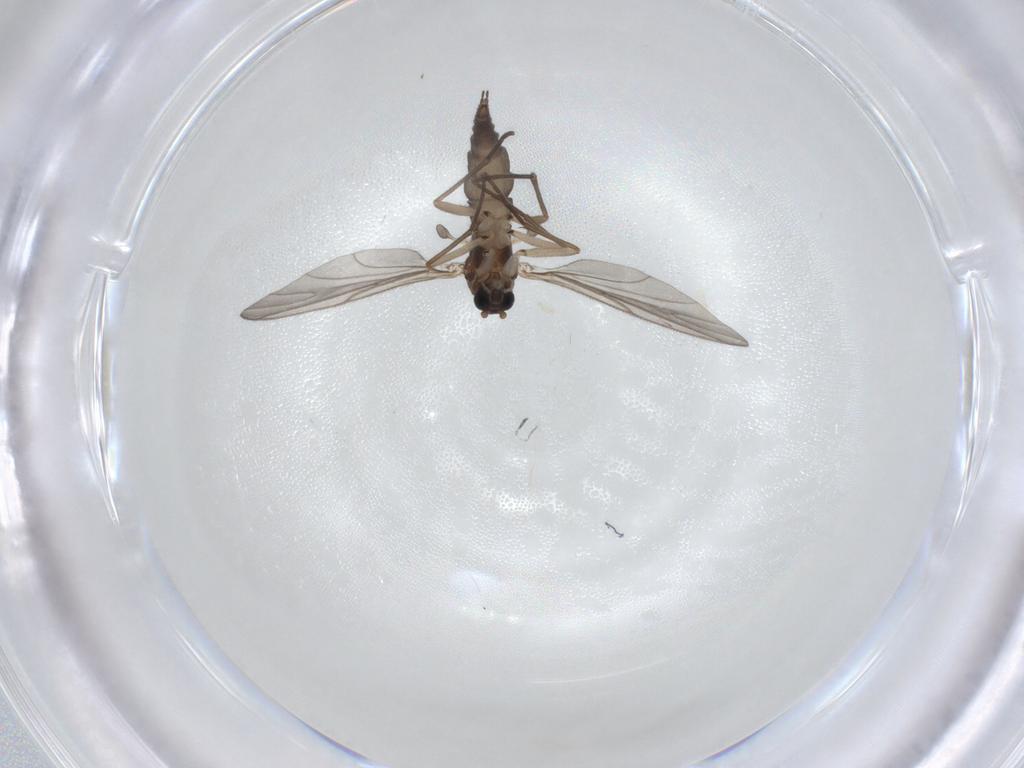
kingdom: Animalia
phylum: Arthropoda
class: Insecta
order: Diptera
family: Sciaridae
